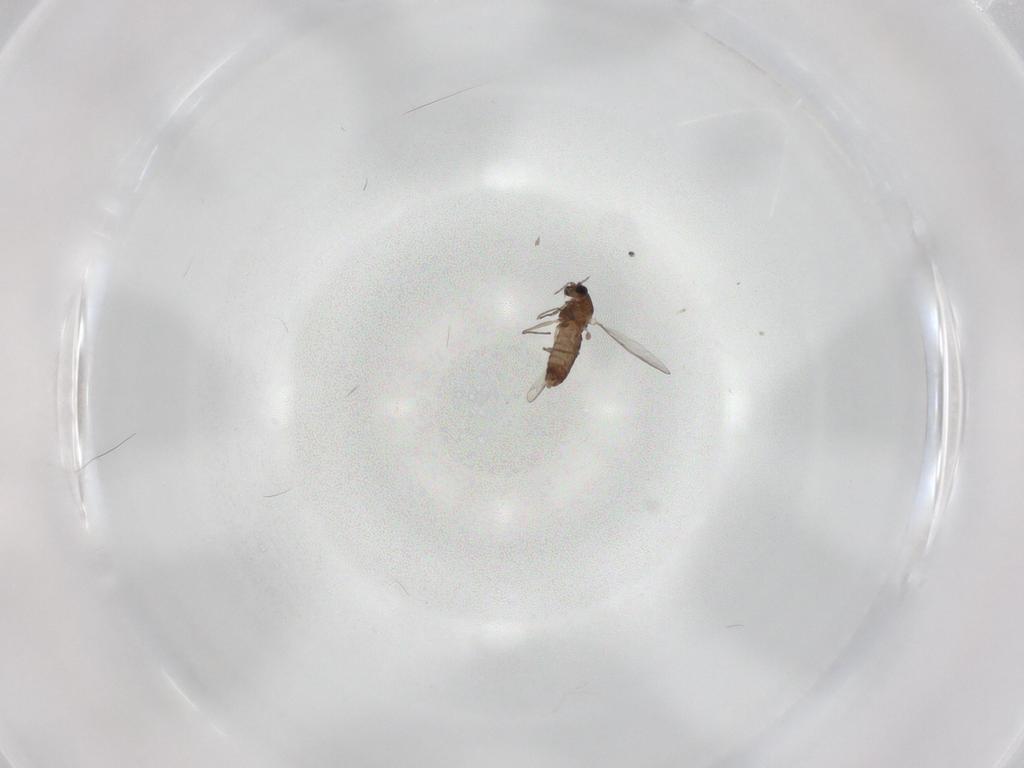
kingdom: Animalia
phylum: Arthropoda
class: Insecta
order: Diptera
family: Chironomidae
